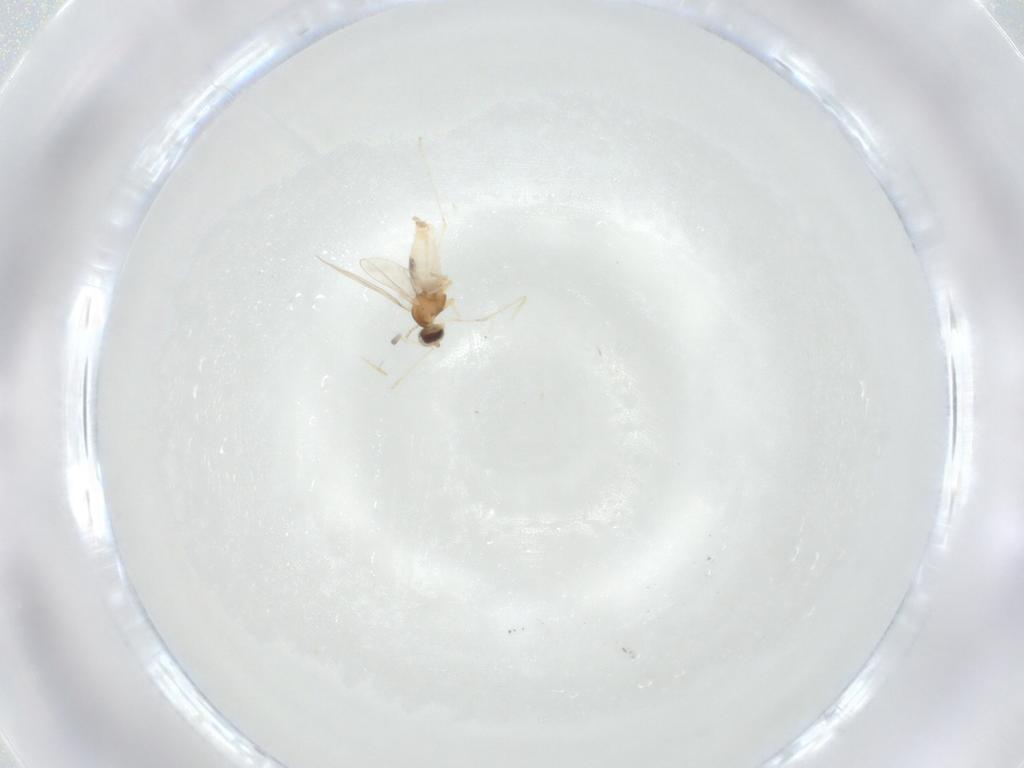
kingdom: Animalia
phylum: Arthropoda
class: Insecta
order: Diptera
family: Cecidomyiidae
